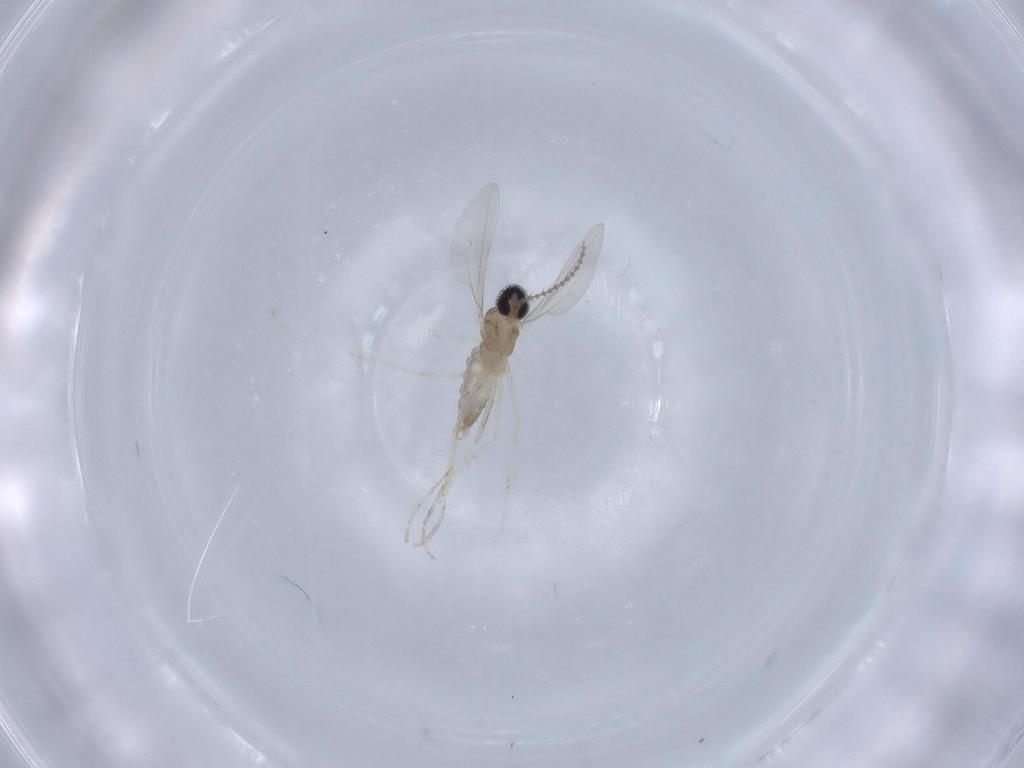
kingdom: Animalia
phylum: Arthropoda
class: Insecta
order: Diptera
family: Chironomidae
